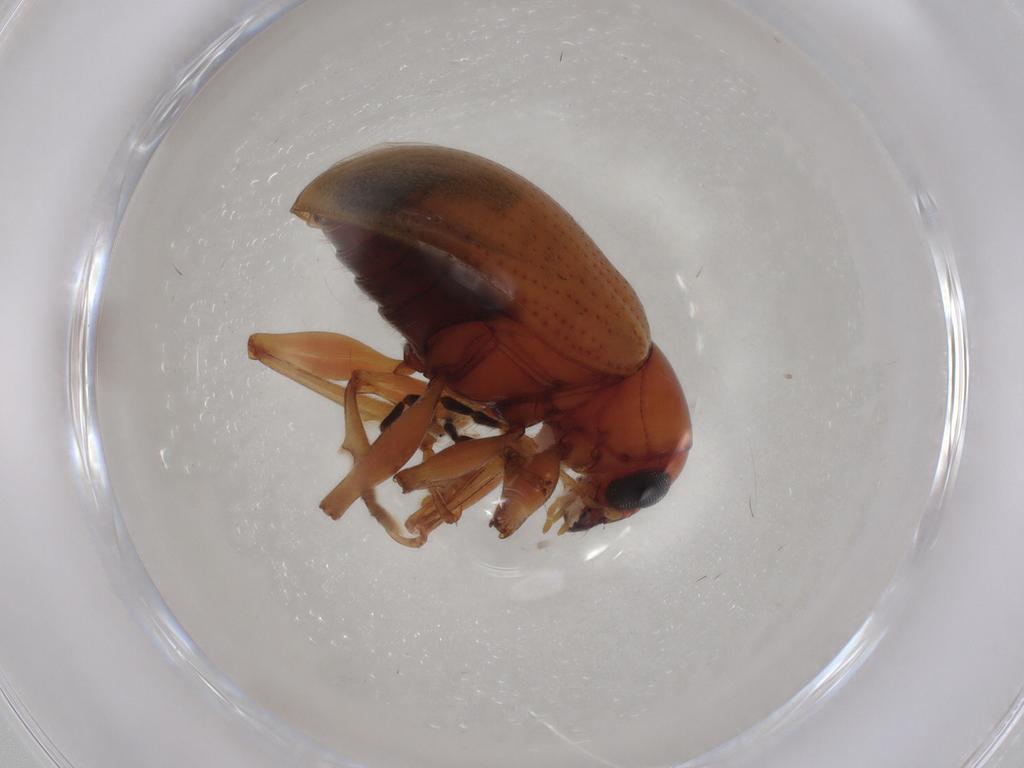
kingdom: Animalia
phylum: Arthropoda
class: Insecta
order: Coleoptera
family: Chrysomelidae
